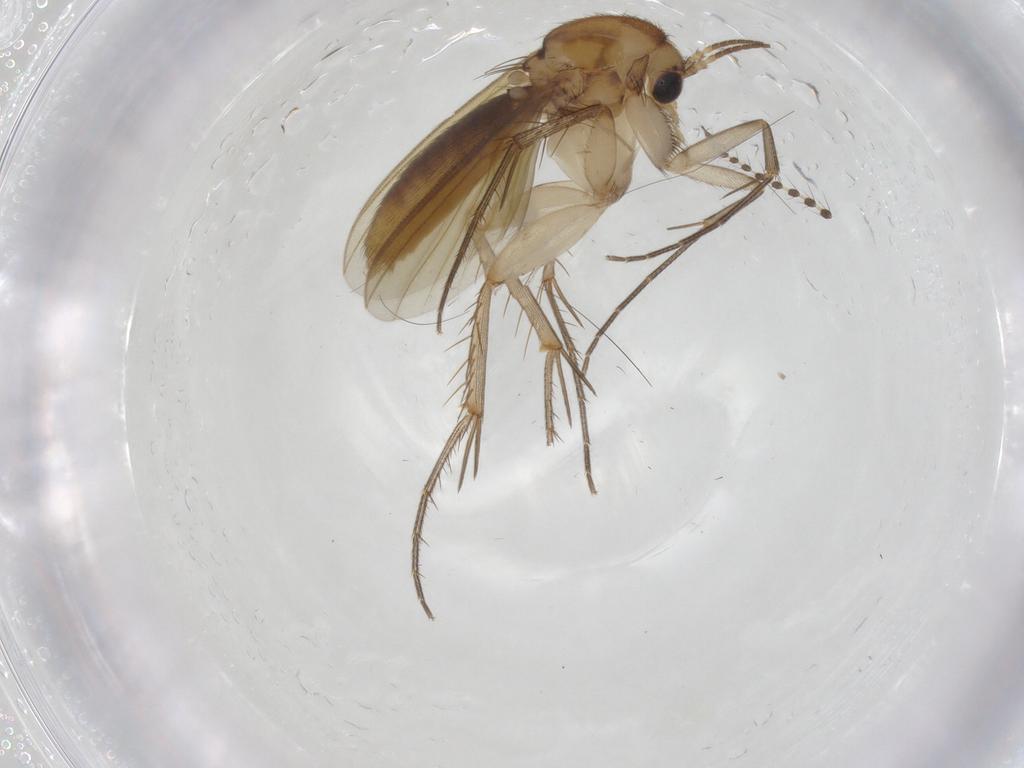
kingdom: Animalia
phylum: Arthropoda
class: Insecta
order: Diptera
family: Mycetophilidae
